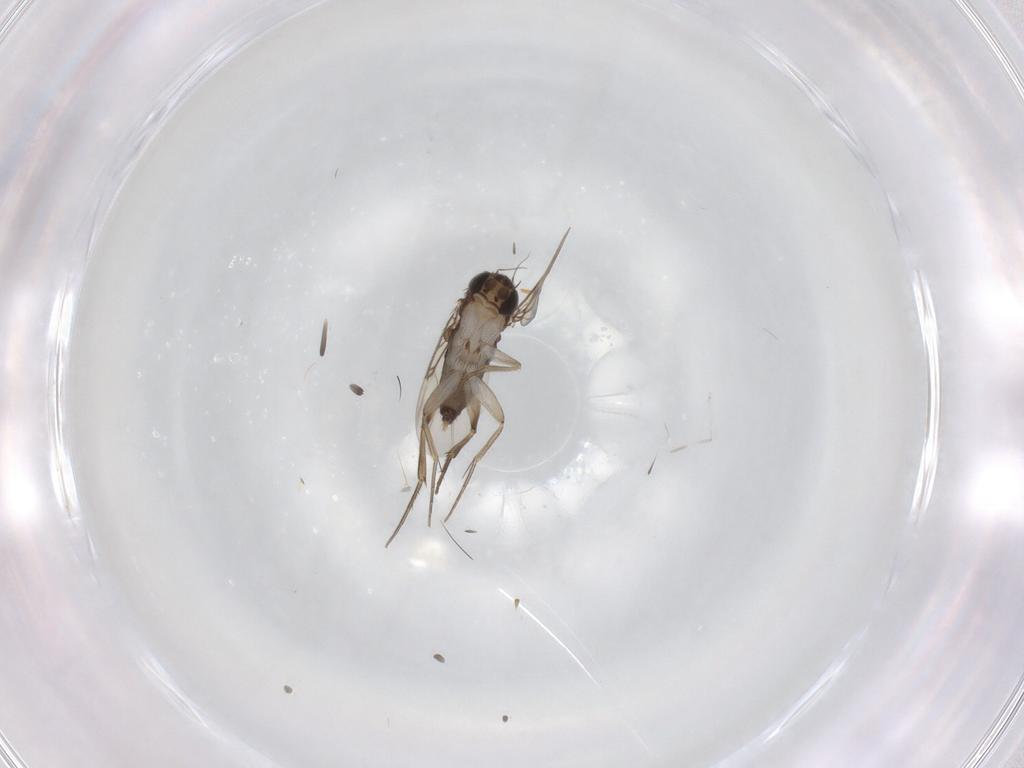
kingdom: Animalia
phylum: Arthropoda
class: Insecta
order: Diptera
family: Phoridae
